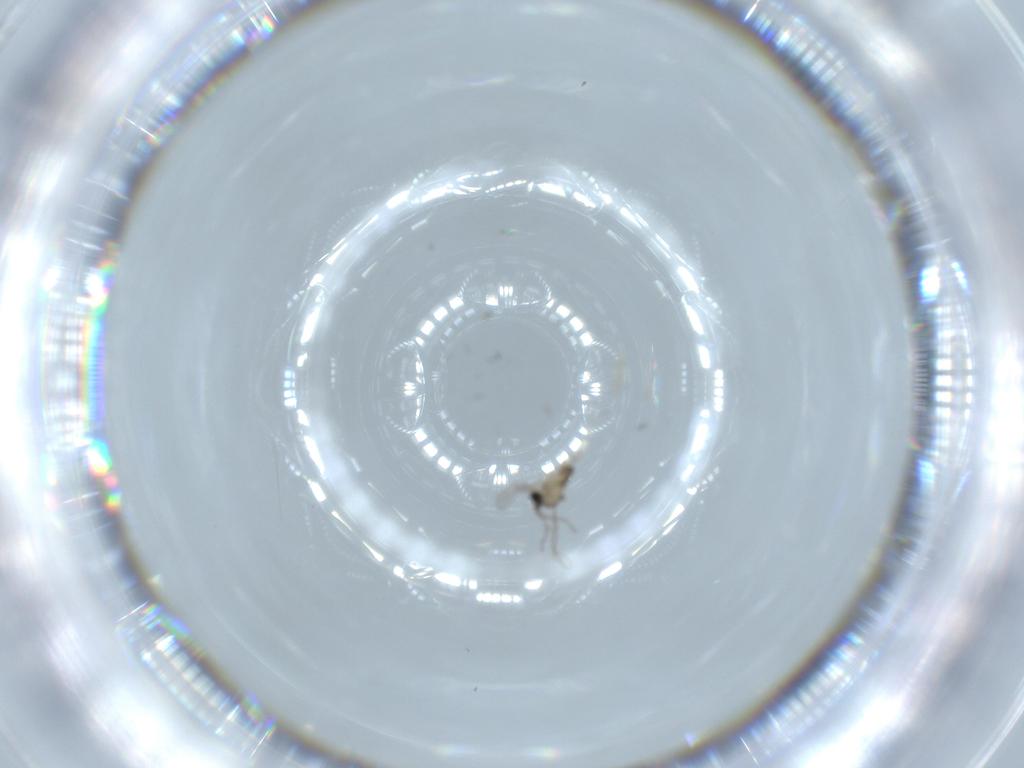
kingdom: Animalia
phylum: Arthropoda
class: Insecta
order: Diptera
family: Cecidomyiidae
